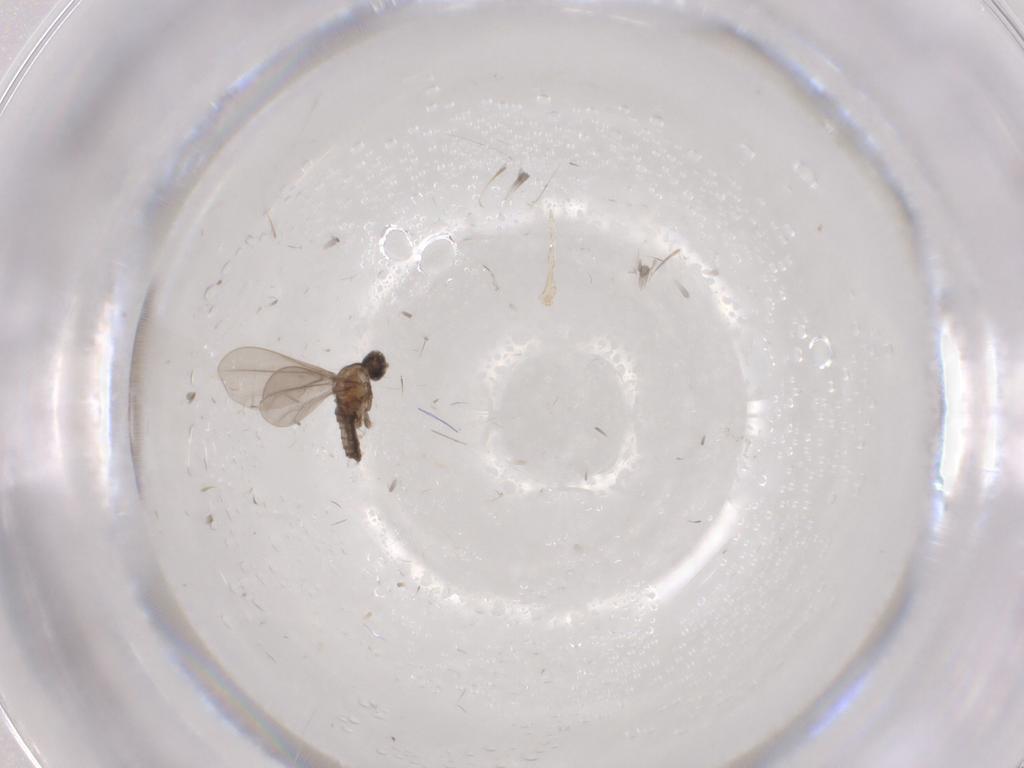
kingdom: Animalia
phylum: Arthropoda
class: Insecta
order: Diptera
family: Cecidomyiidae
